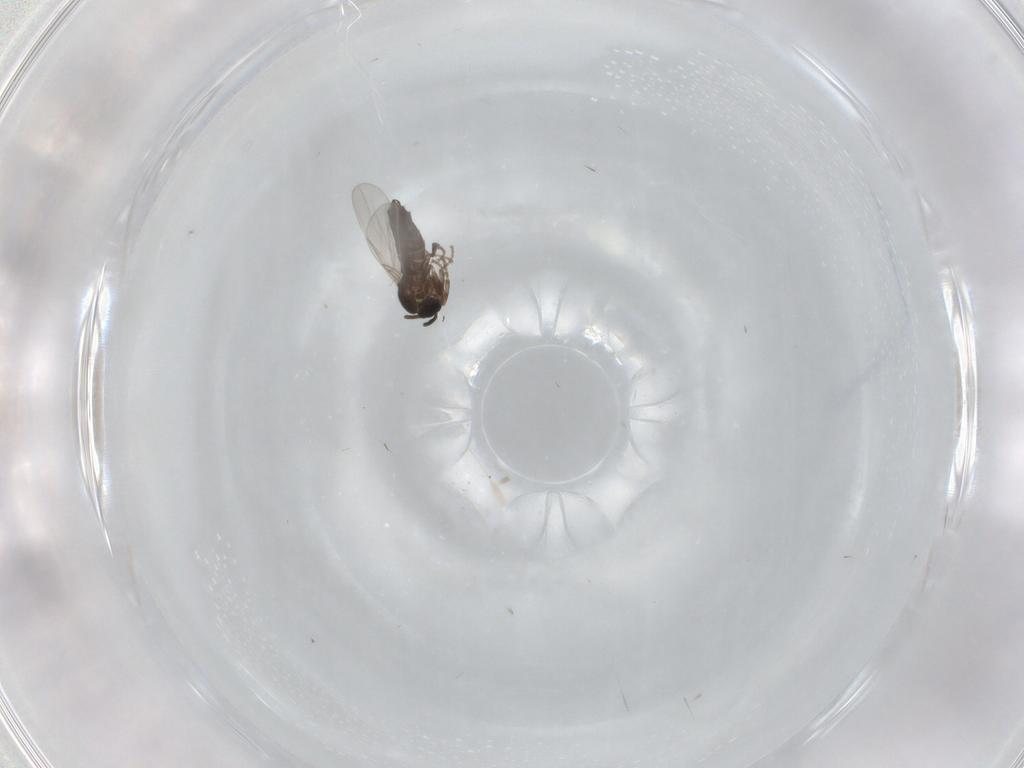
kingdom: Animalia
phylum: Arthropoda
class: Insecta
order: Diptera
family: Scatopsidae
